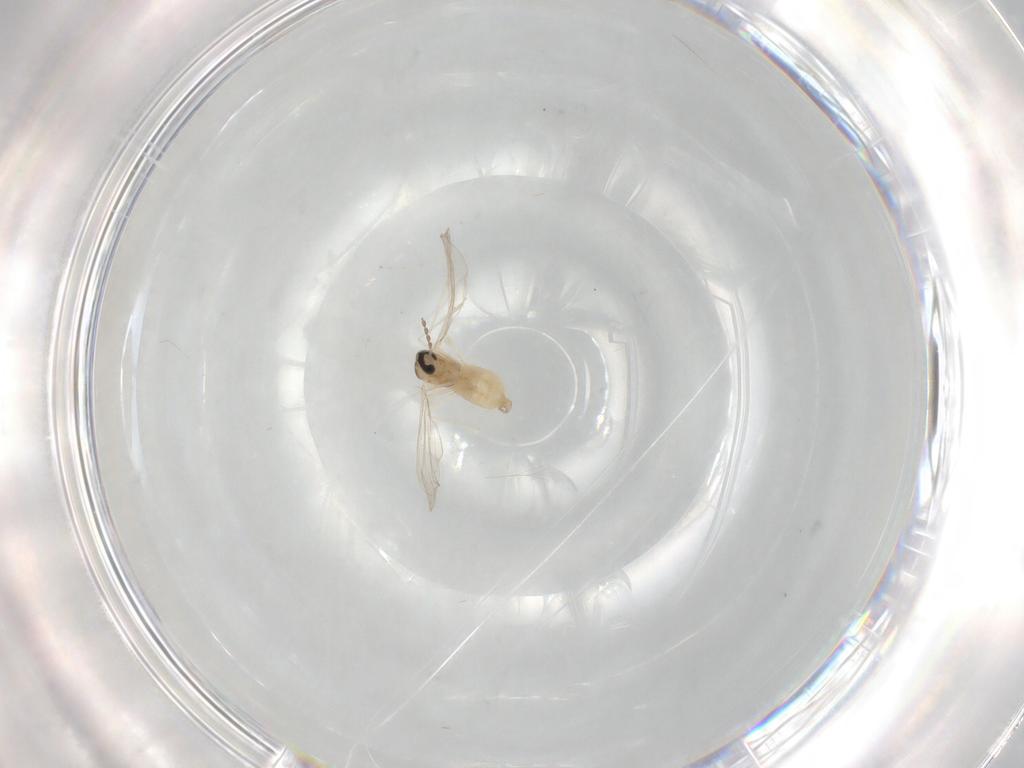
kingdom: Animalia
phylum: Arthropoda
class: Insecta
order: Diptera
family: Cecidomyiidae
